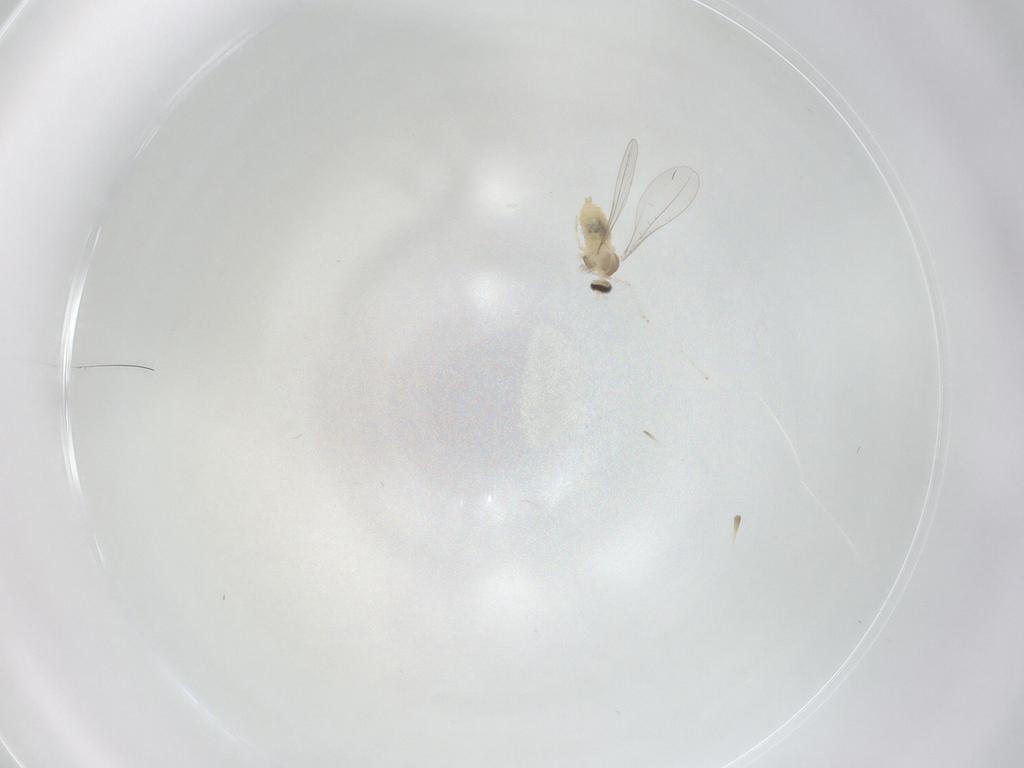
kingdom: Animalia
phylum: Arthropoda
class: Insecta
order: Diptera
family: Cecidomyiidae
